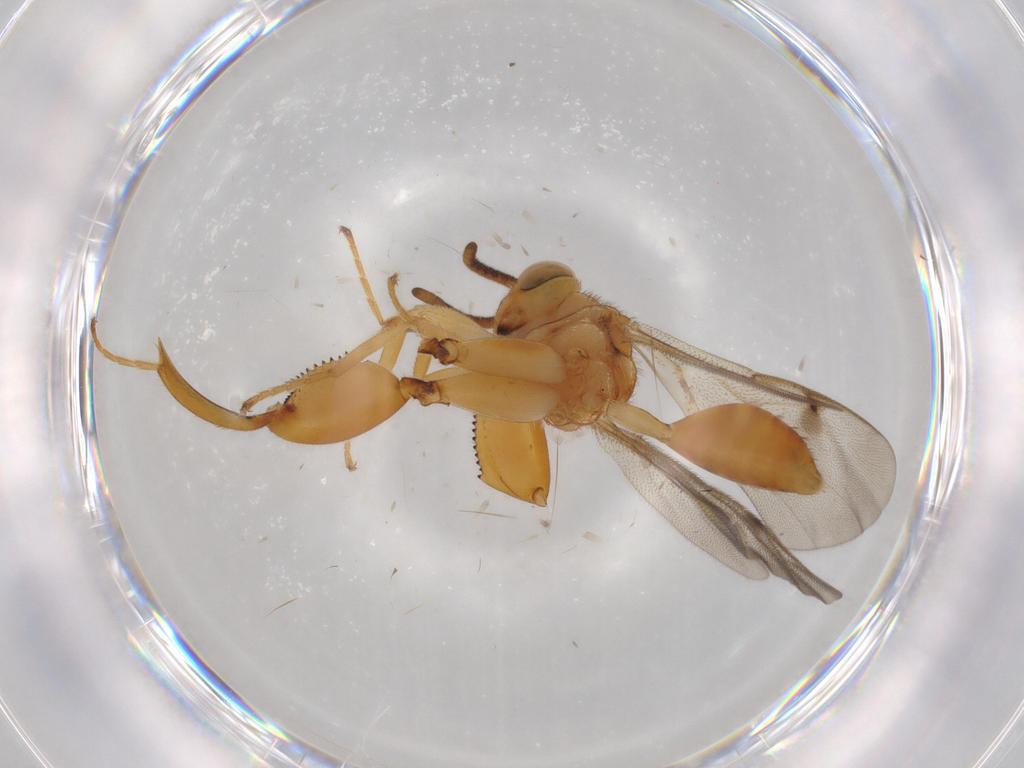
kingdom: Animalia
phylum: Arthropoda
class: Insecta
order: Hymenoptera
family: Chalcididae
